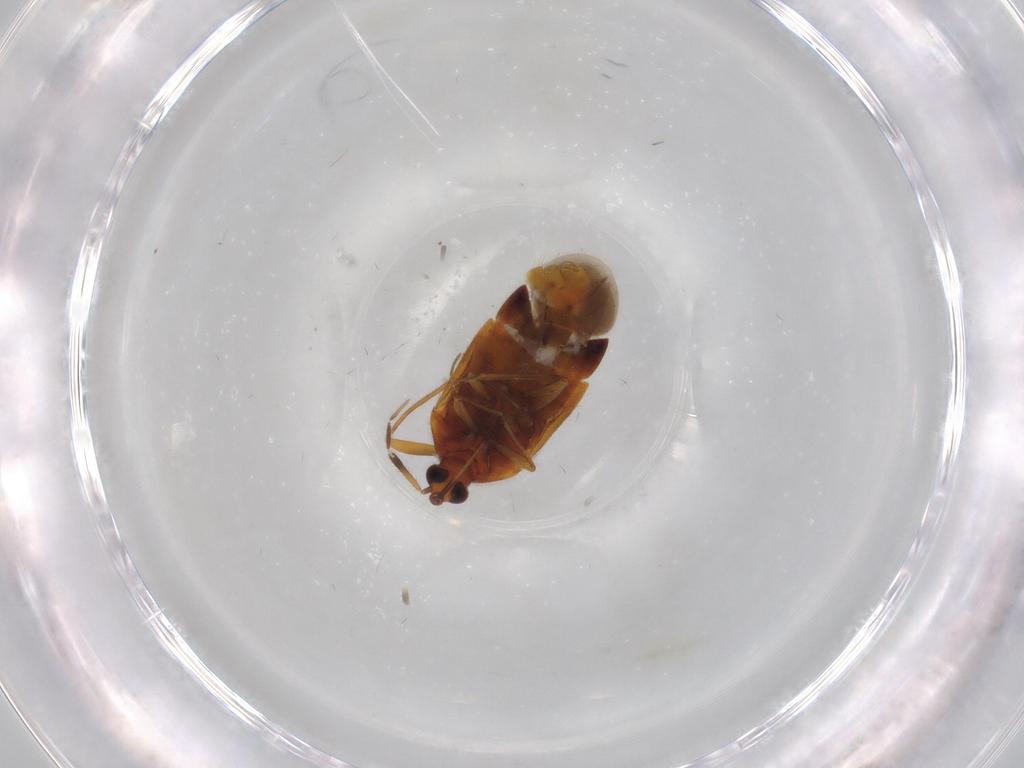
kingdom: Animalia
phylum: Arthropoda
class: Insecta
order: Hemiptera
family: Anthocoridae
